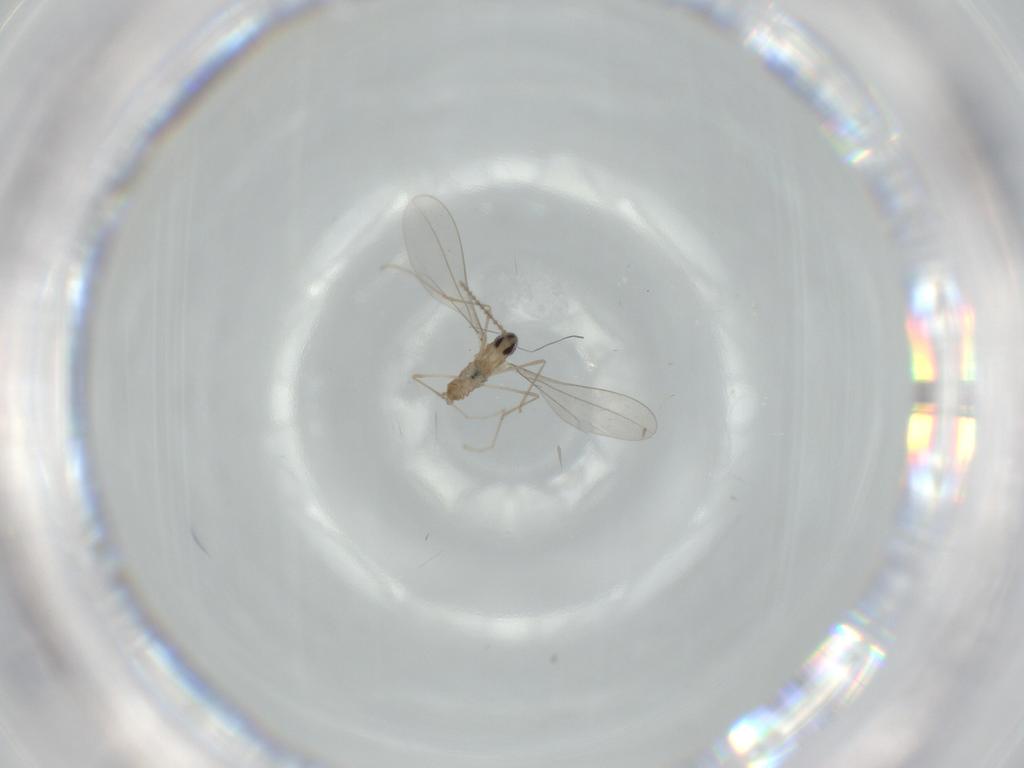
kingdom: Animalia
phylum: Arthropoda
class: Insecta
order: Diptera
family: Cecidomyiidae
